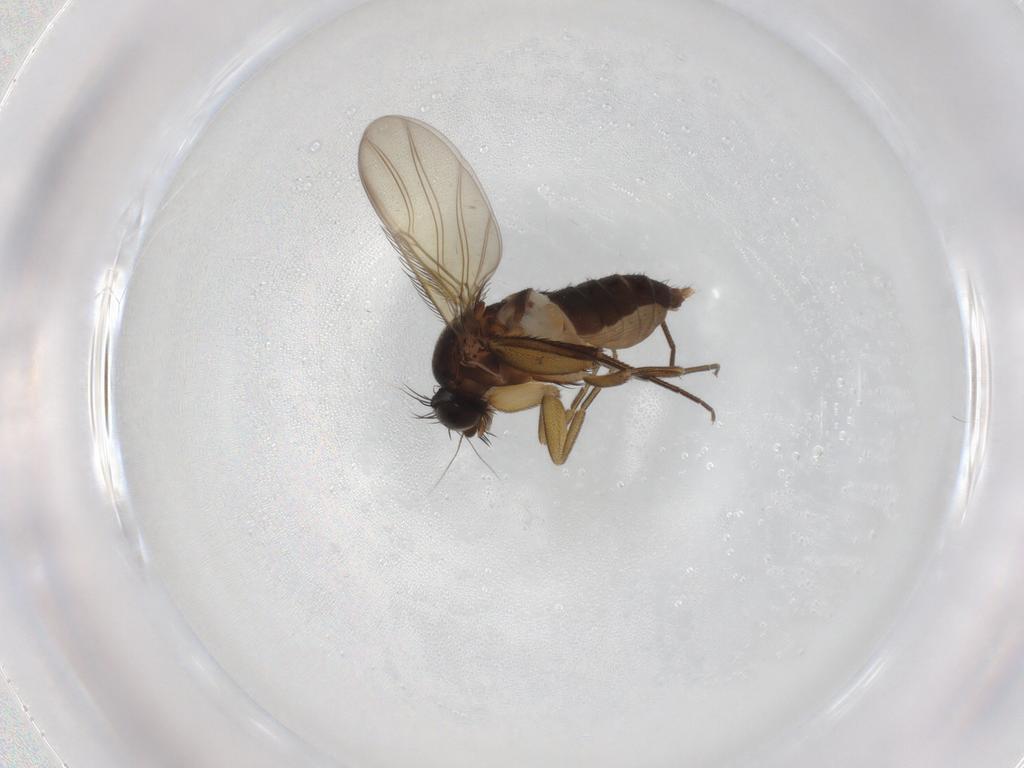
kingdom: Animalia
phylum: Arthropoda
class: Insecta
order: Diptera
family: Phoridae
